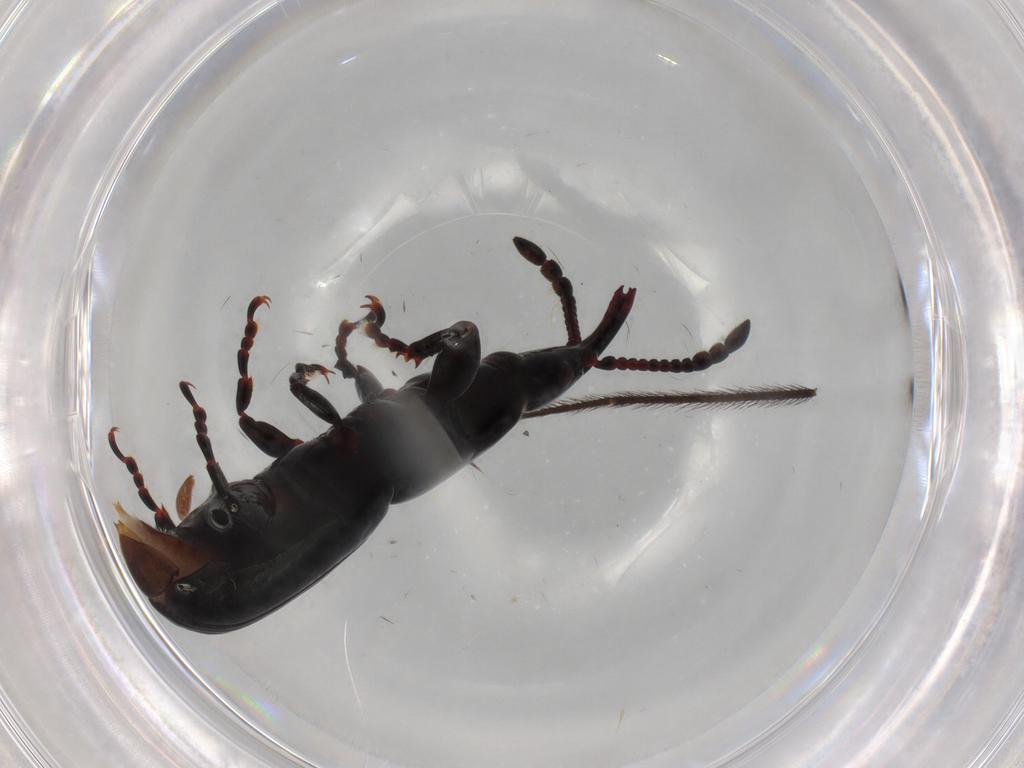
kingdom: Animalia
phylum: Arthropoda
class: Insecta
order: Coleoptera
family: Brentidae
